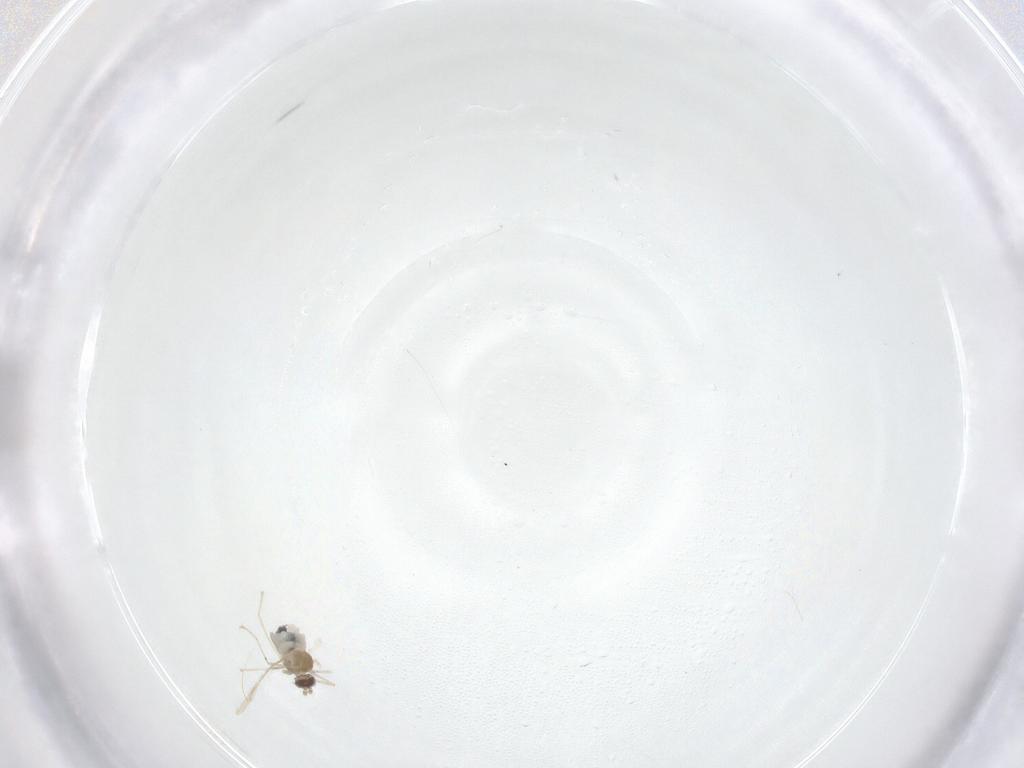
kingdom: Animalia
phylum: Arthropoda
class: Insecta
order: Diptera
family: Cecidomyiidae
